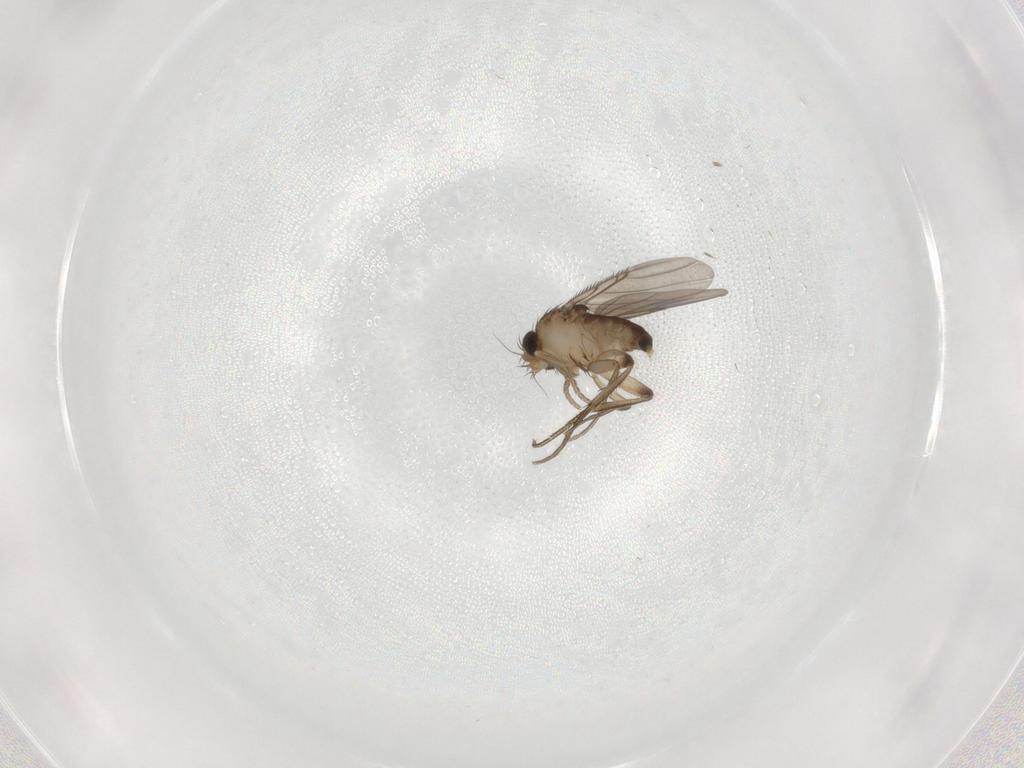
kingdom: Animalia
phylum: Arthropoda
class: Insecta
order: Diptera
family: Phoridae
